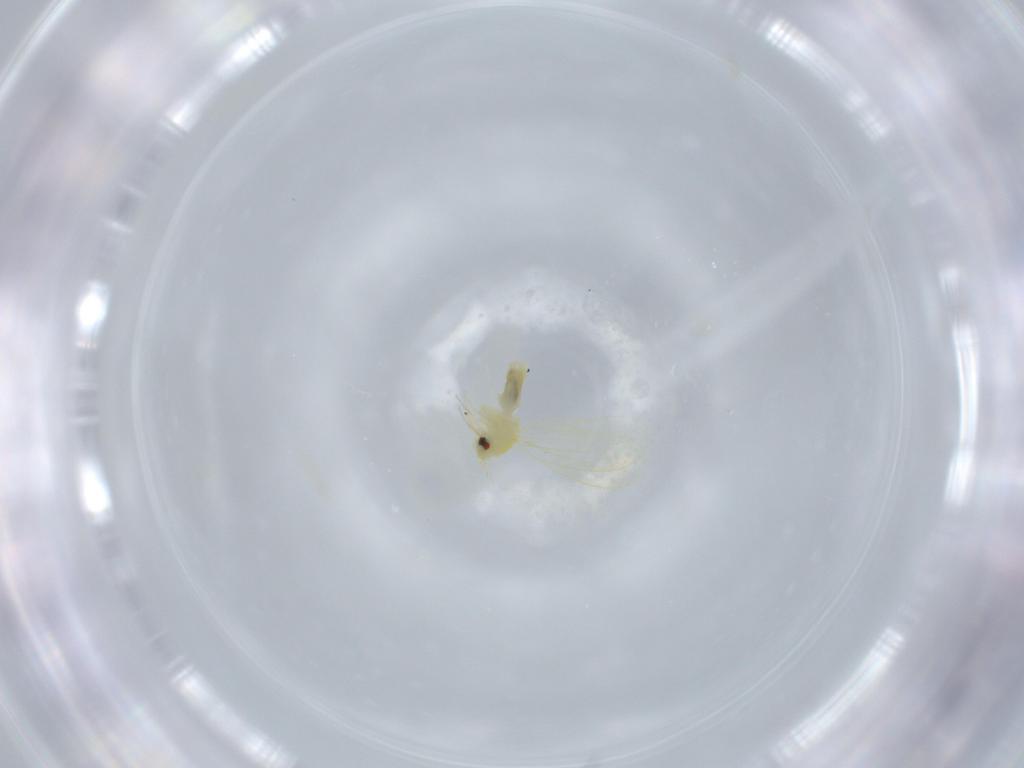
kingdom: Animalia
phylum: Arthropoda
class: Insecta
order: Hemiptera
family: Aleyrodidae
